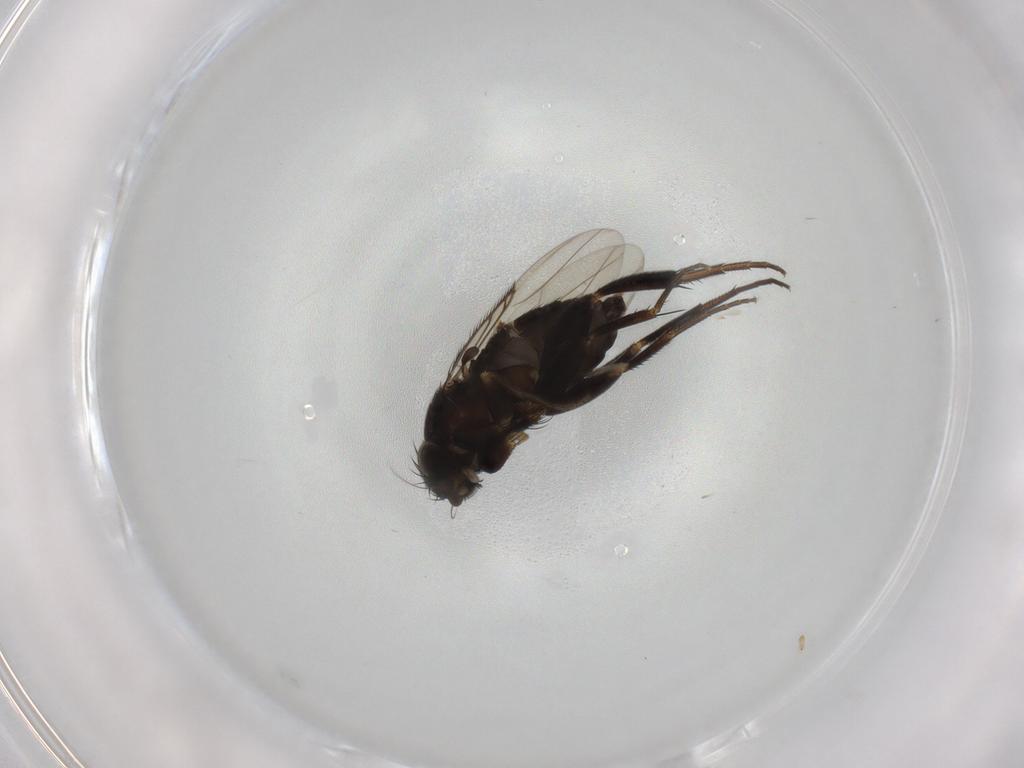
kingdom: Animalia
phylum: Arthropoda
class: Insecta
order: Diptera
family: Phoridae
